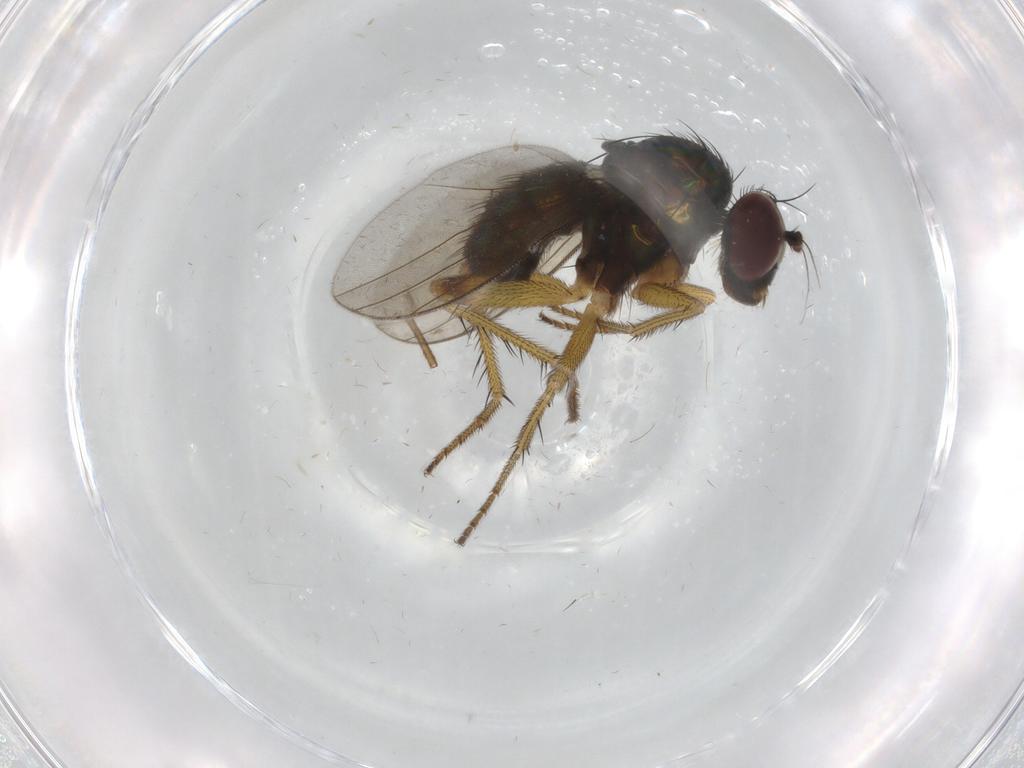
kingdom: Animalia
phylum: Arthropoda
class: Insecta
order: Diptera
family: Dolichopodidae
